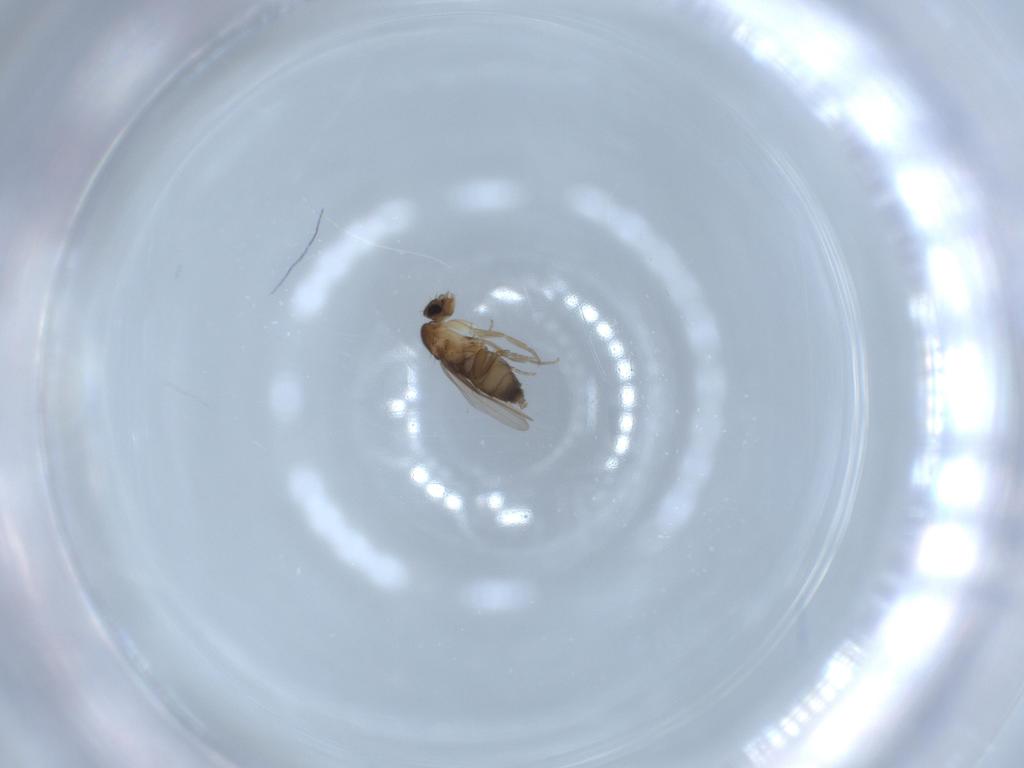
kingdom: Animalia
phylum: Arthropoda
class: Insecta
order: Diptera
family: Phoridae
